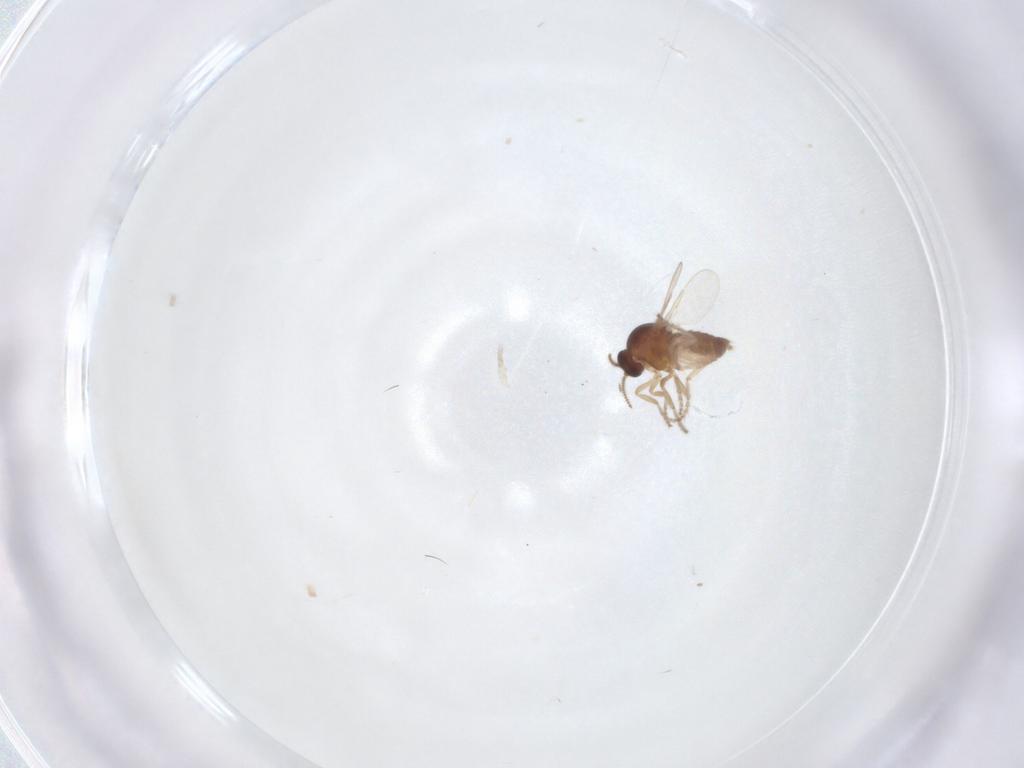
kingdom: Animalia
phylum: Arthropoda
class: Insecta
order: Diptera
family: Ceratopogonidae
